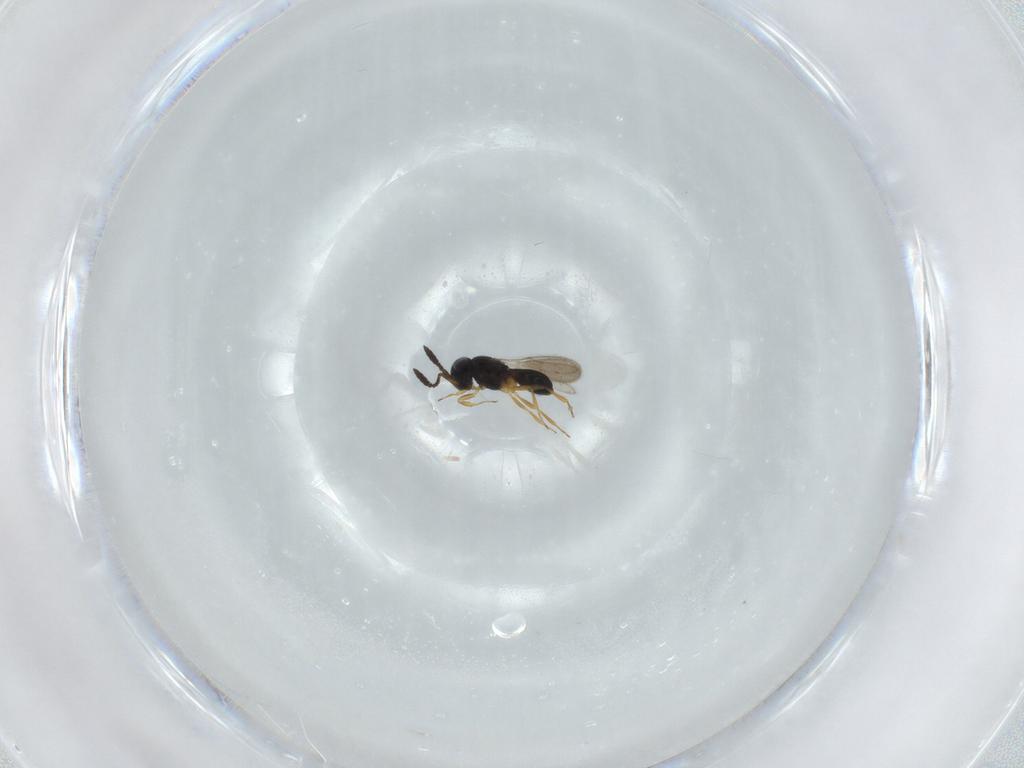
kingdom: Animalia
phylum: Arthropoda
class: Insecta
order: Hymenoptera
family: Scelionidae
